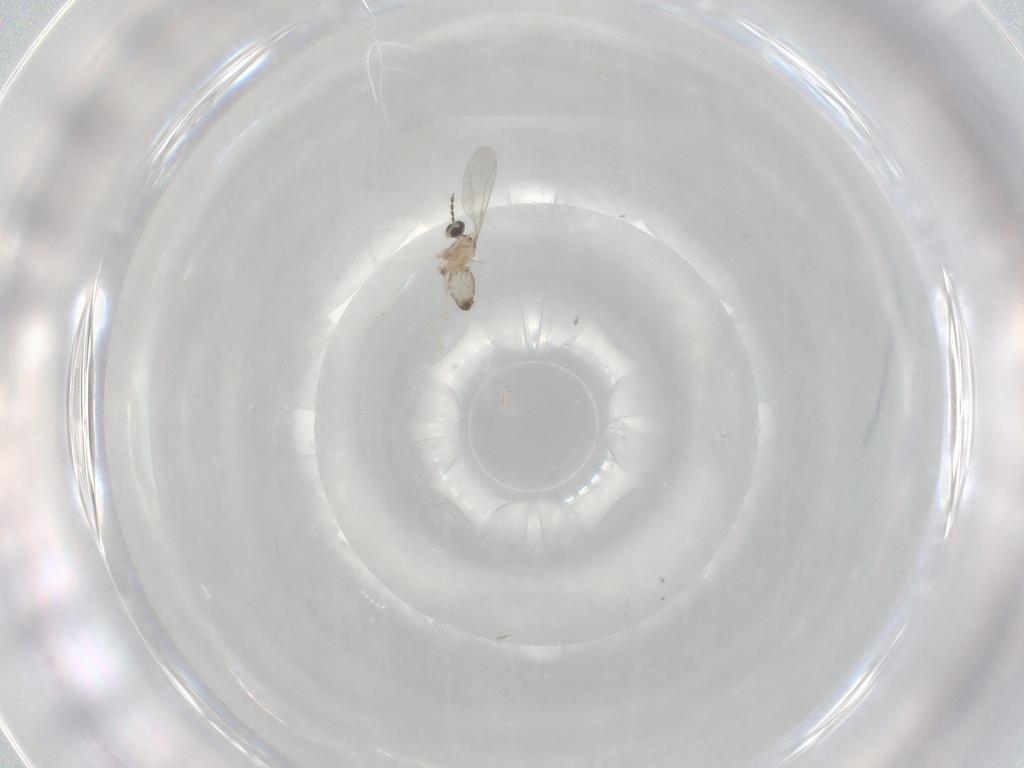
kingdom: Animalia
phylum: Arthropoda
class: Insecta
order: Diptera
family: Cecidomyiidae
